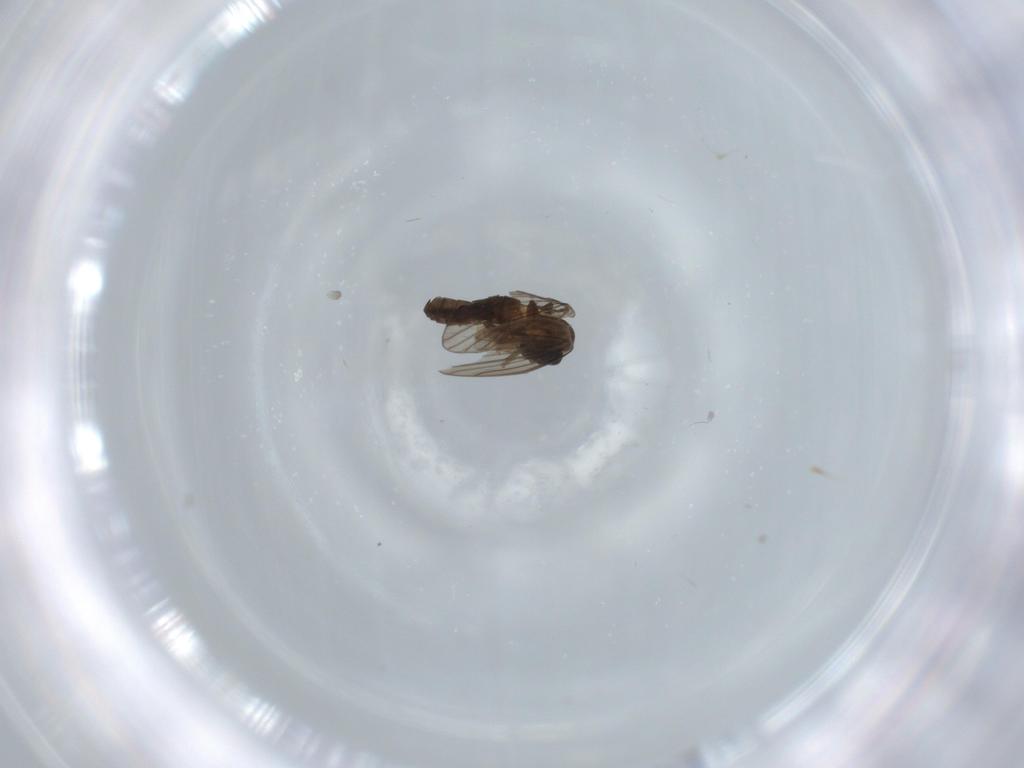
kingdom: Animalia
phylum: Arthropoda
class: Insecta
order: Diptera
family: Psychodidae
